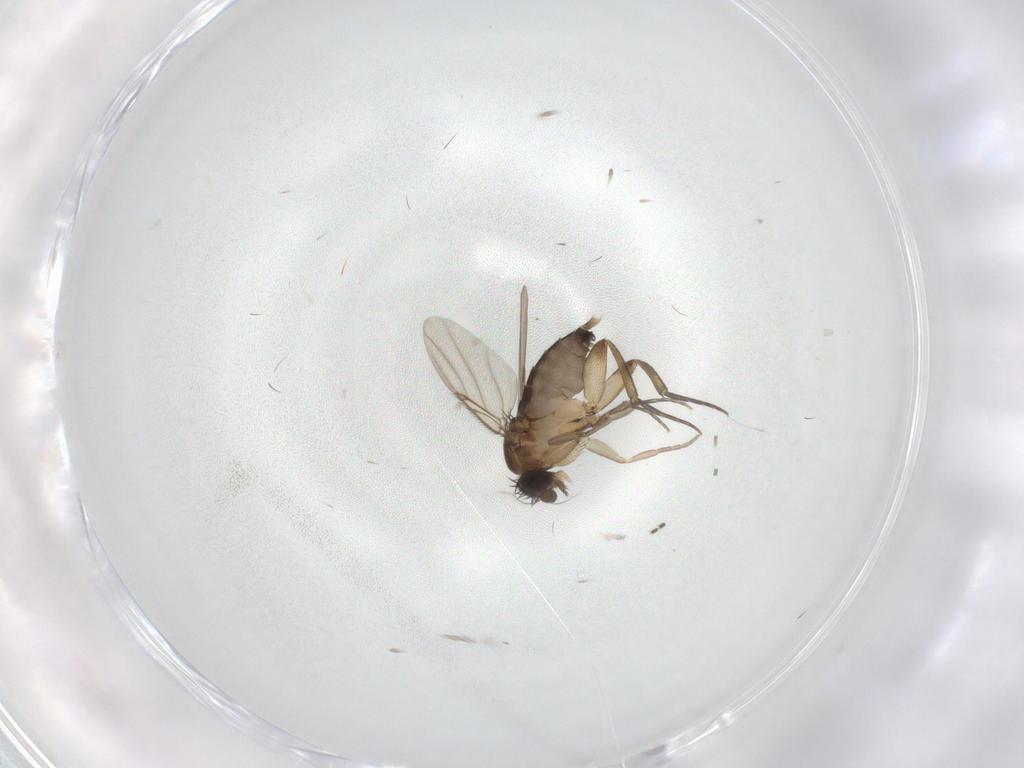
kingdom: Animalia
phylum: Arthropoda
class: Insecta
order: Diptera
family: Phoridae
